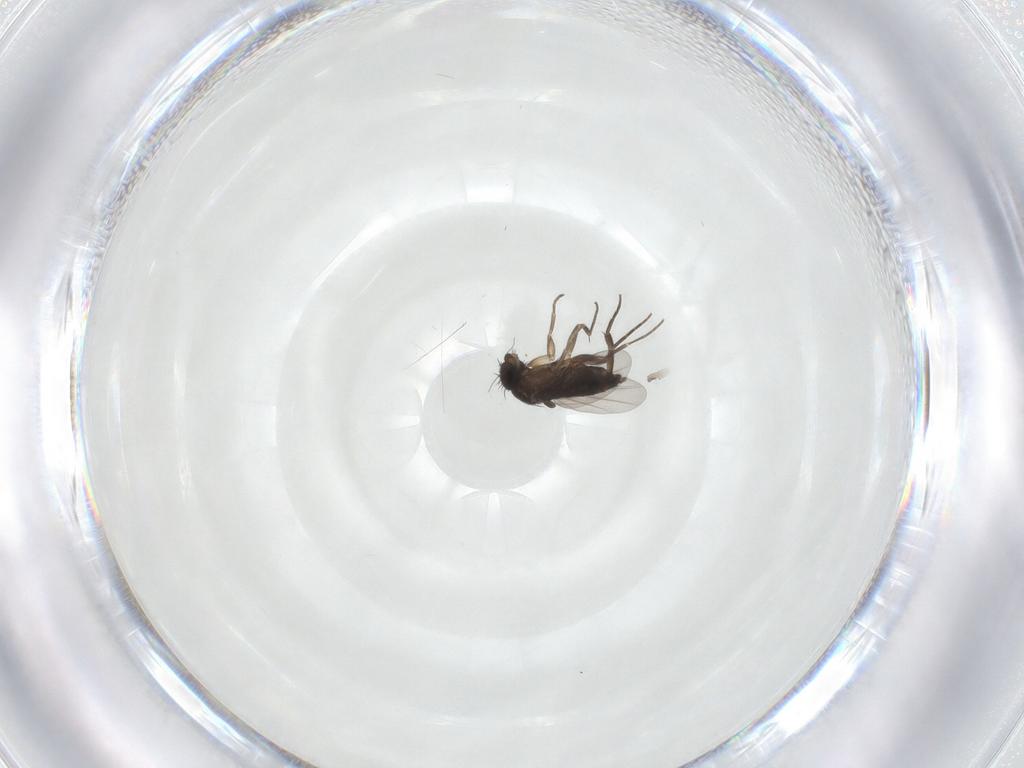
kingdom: Animalia
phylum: Arthropoda
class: Insecta
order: Diptera
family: Phoridae
